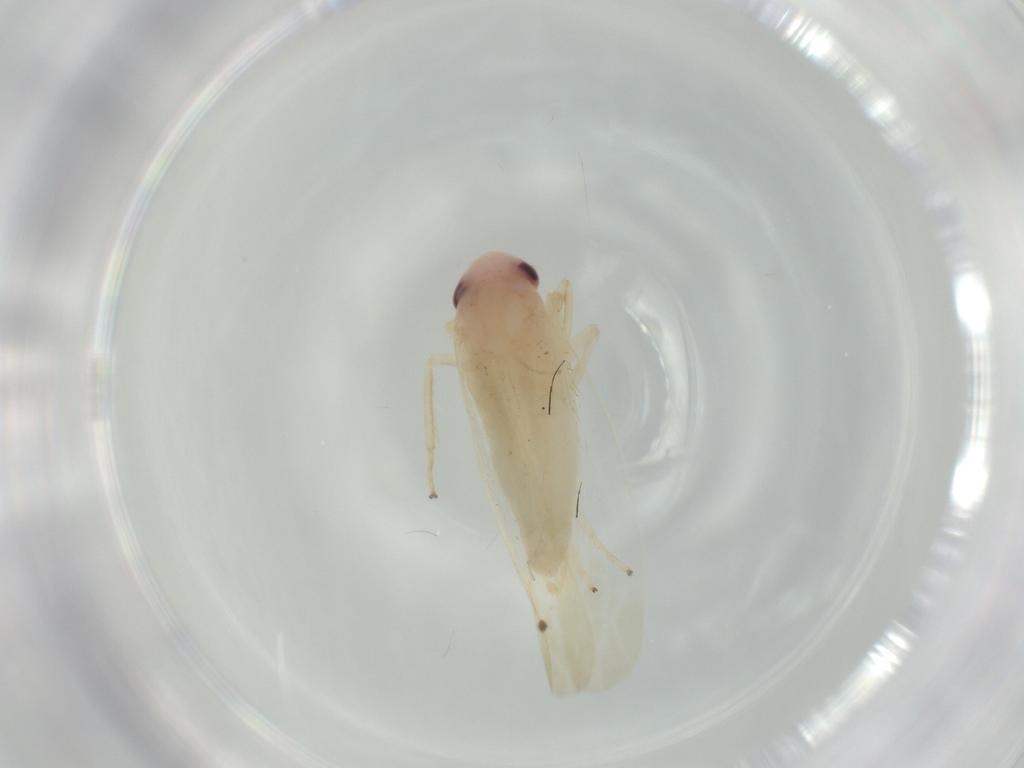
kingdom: Animalia
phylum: Arthropoda
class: Insecta
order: Hemiptera
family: Cicadellidae
